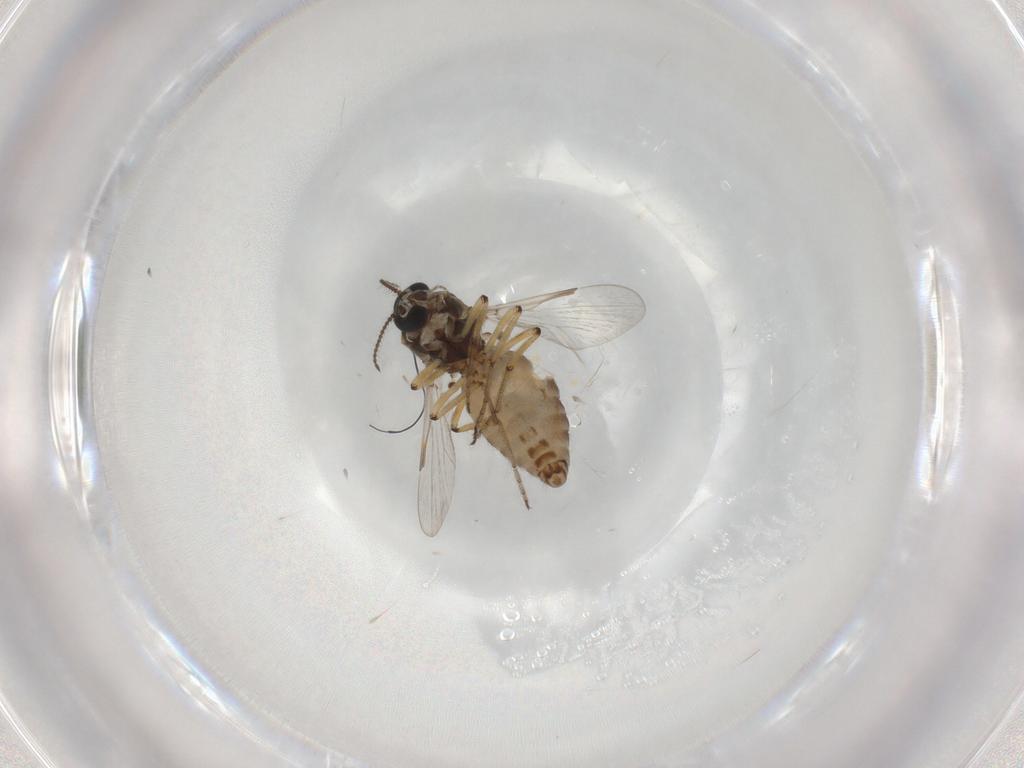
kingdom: Animalia
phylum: Arthropoda
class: Insecta
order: Diptera
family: Ceratopogonidae
